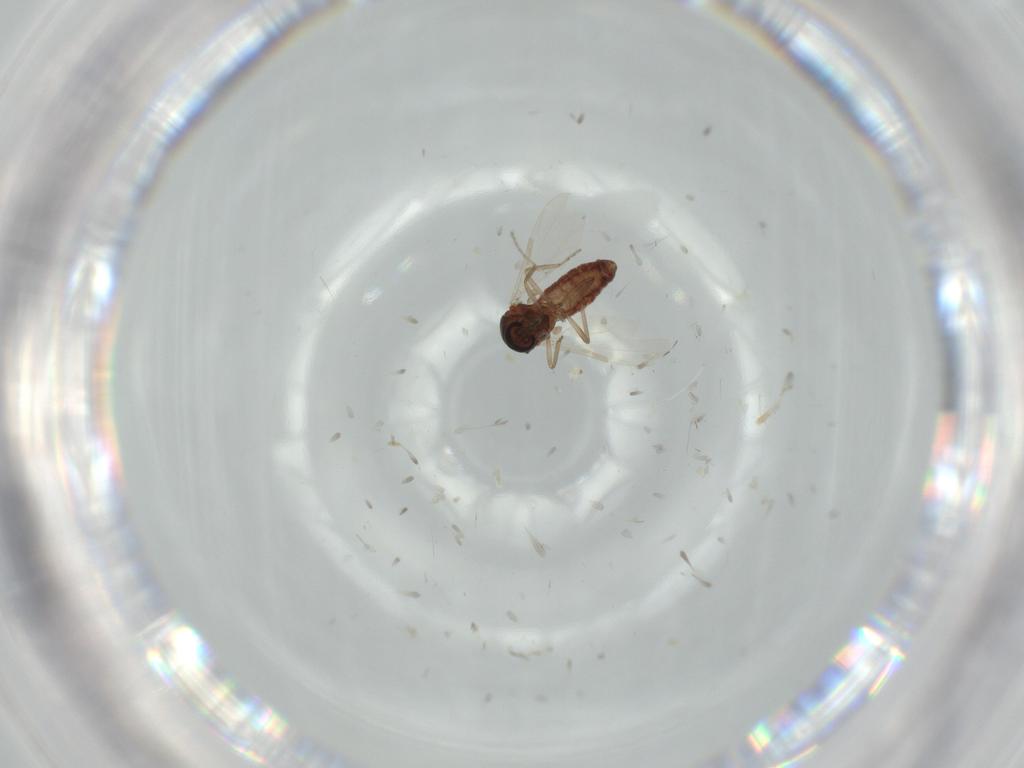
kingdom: Animalia
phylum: Arthropoda
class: Insecta
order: Diptera
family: Ceratopogonidae
